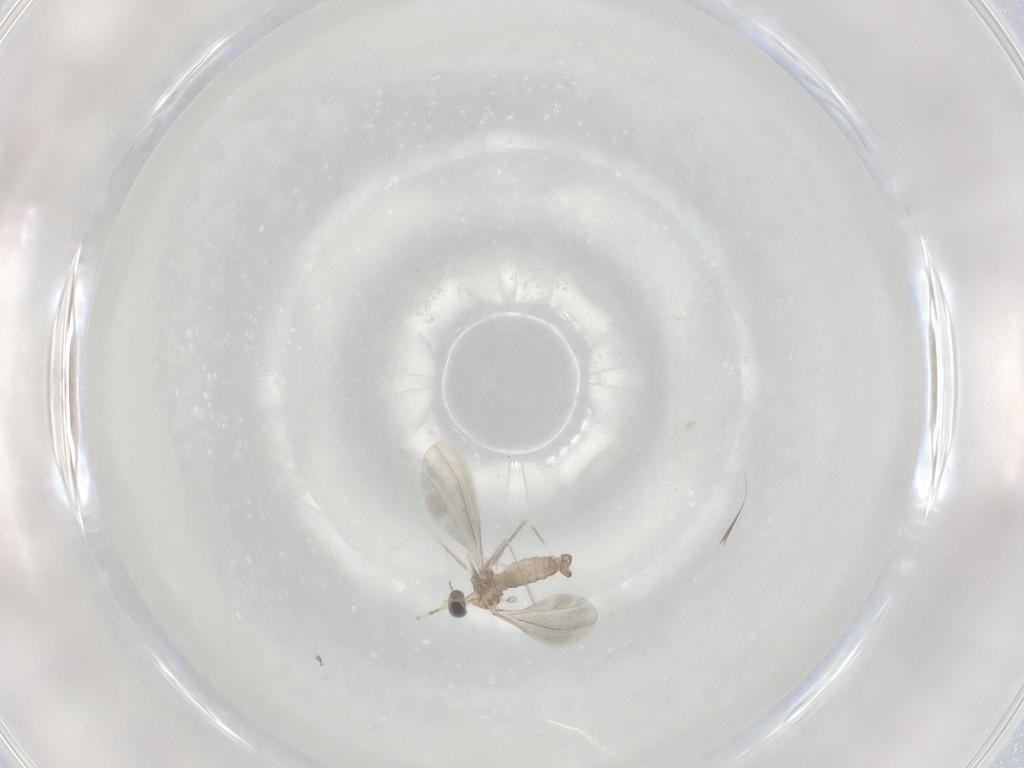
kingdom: Animalia
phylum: Arthropoda
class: Insecta
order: Diptera
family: Cecidomyiidae
